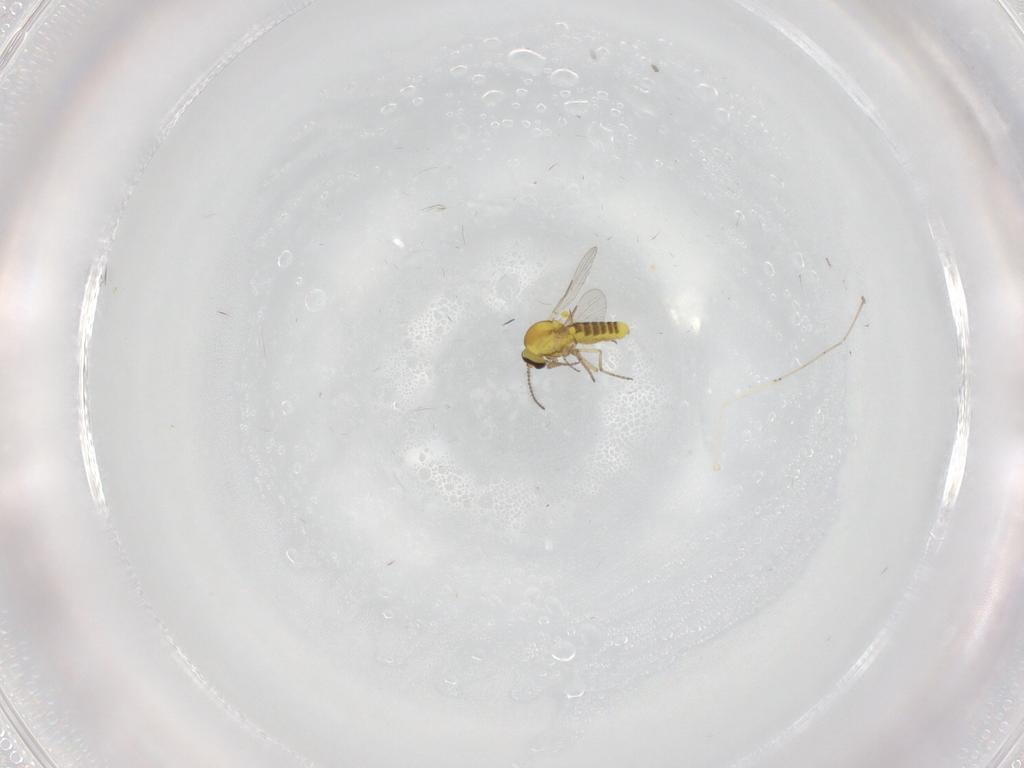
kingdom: Animalia
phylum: Arthropoda
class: Insecta
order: Diptera
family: Ceratopogonidae
